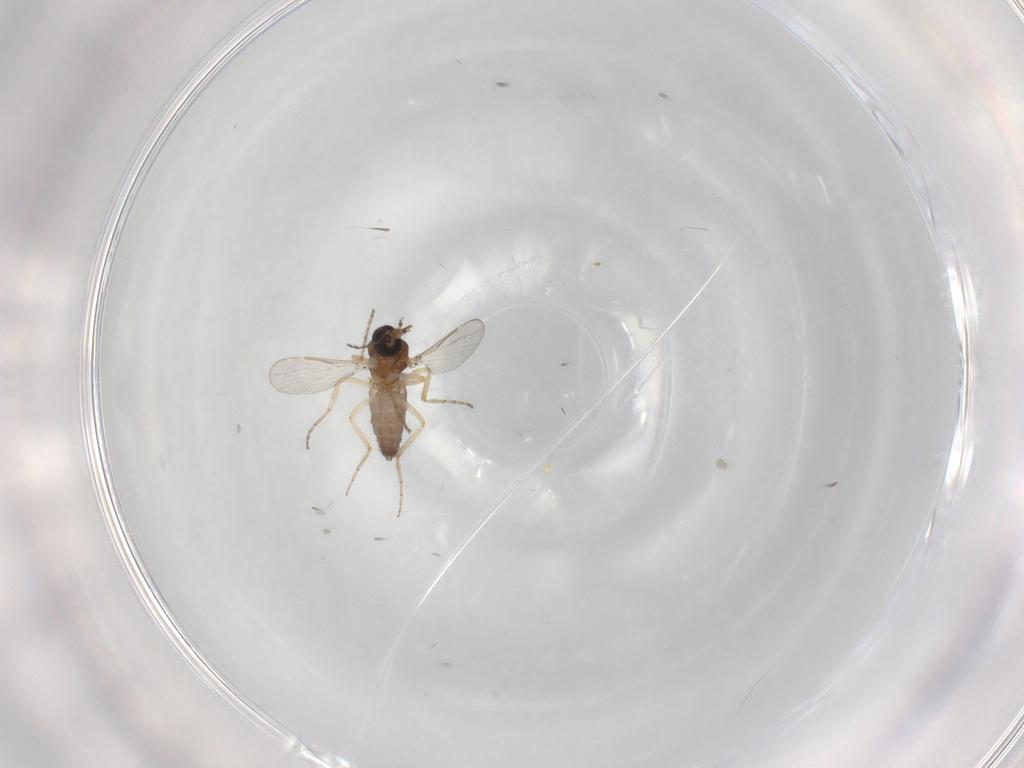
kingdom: Animalia
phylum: Arthropoda
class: Insecta
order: Diptera
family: Ceratopogonidae
